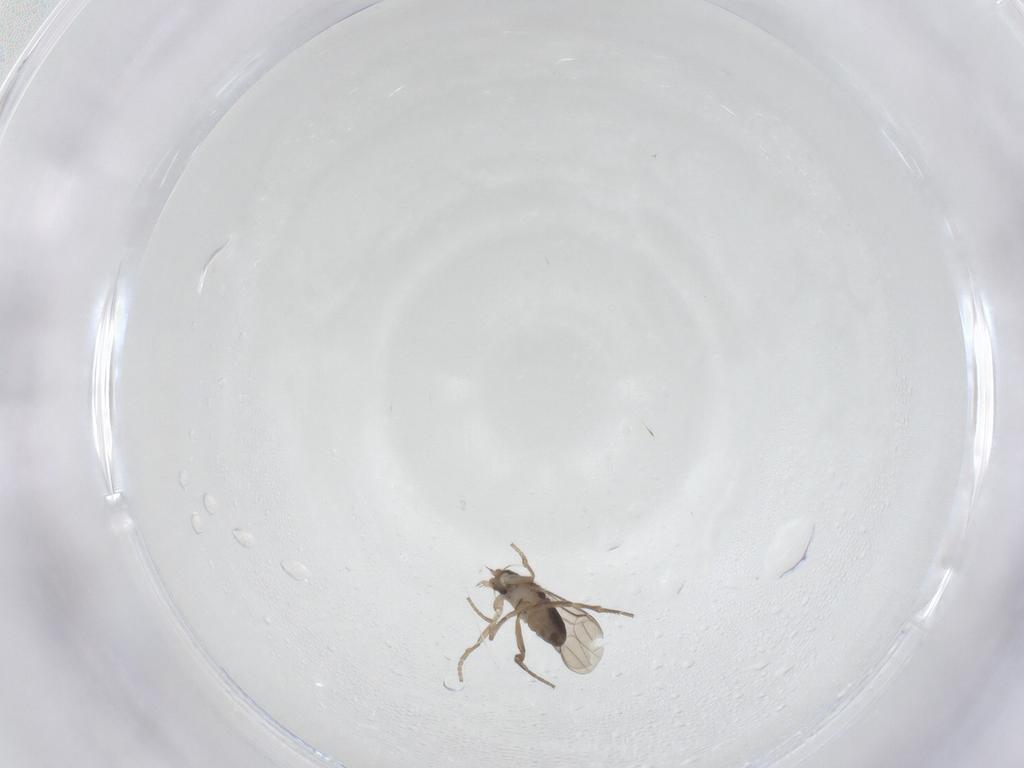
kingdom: Animalia
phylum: Arthropoda
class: Insecta
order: Diptera
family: Phoridae
